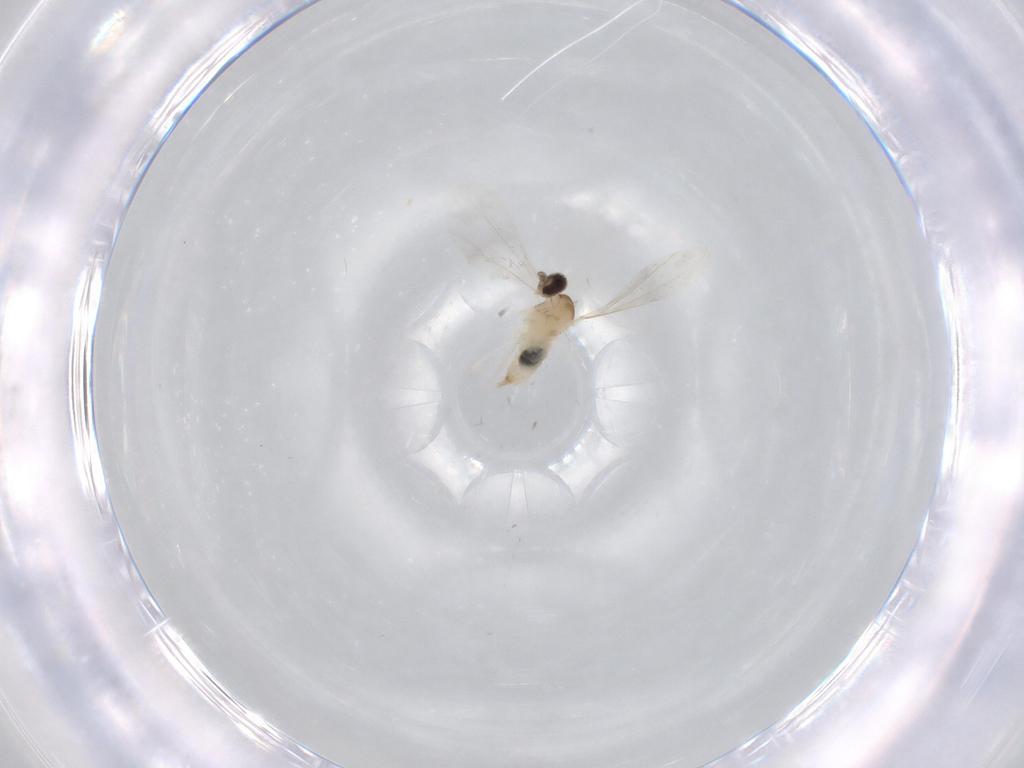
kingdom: Animalia
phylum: Arthropoda
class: Insecta
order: Diptera
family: Cecidomyiidae
